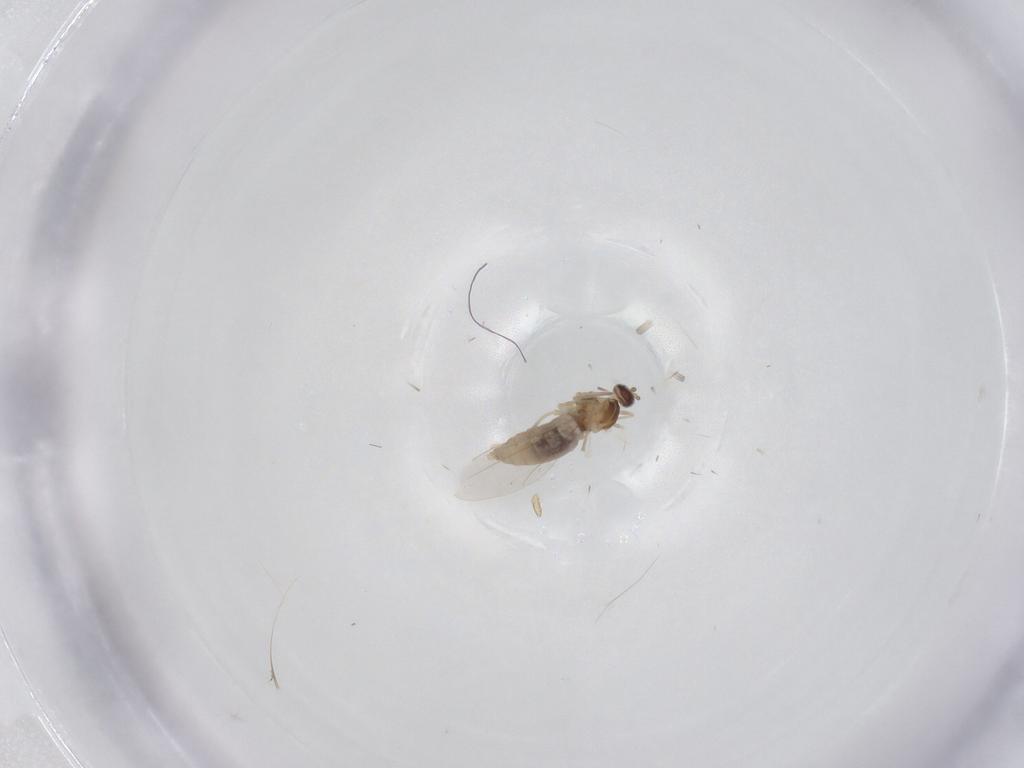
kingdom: Animalia
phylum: Arthropoda
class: Insecta
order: Diptera
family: Cecidomyiidae
